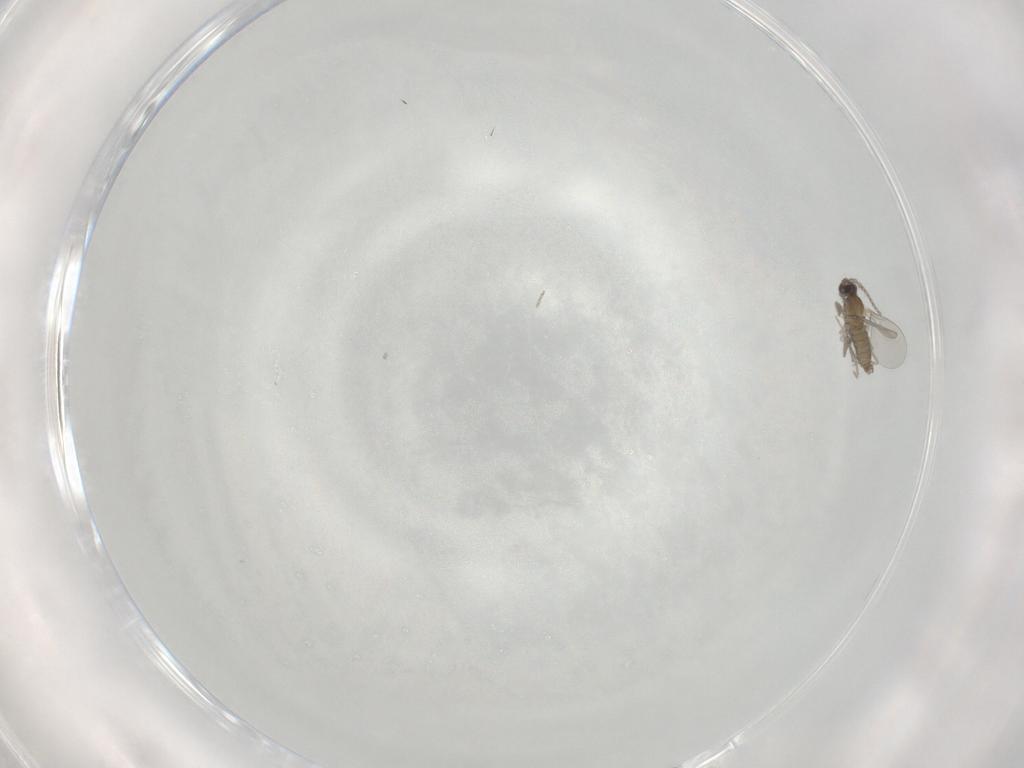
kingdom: Animalia
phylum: Arthropoda
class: Insecta
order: Diptera
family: Cecidomyiidae
